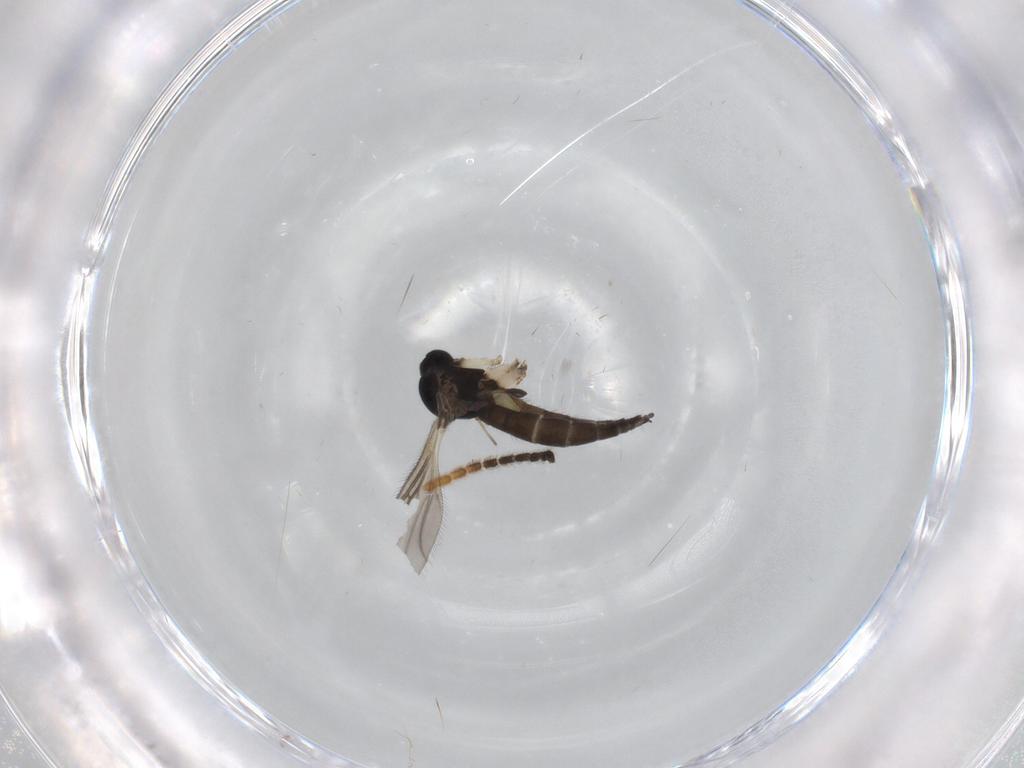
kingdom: Animalia
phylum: Arthropoda
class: Insecta
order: Diptera
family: Sciaridae
